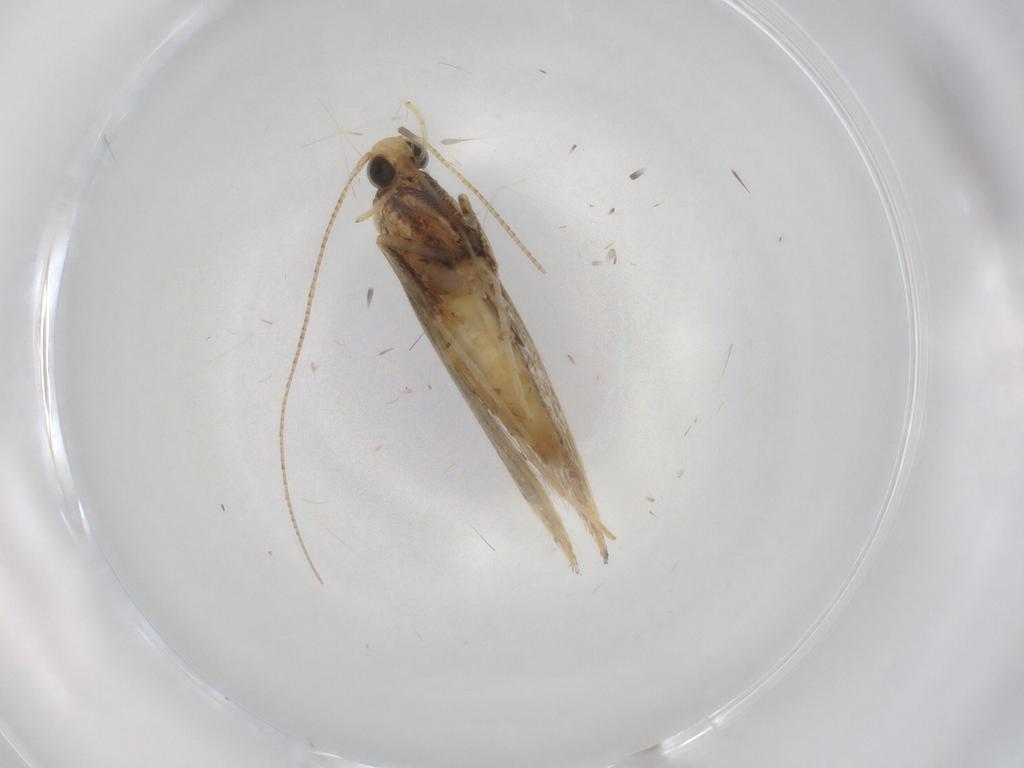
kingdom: Animalia
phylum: Arthropoda
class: Insecta
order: Lepidoptera
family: Gracillariidae
